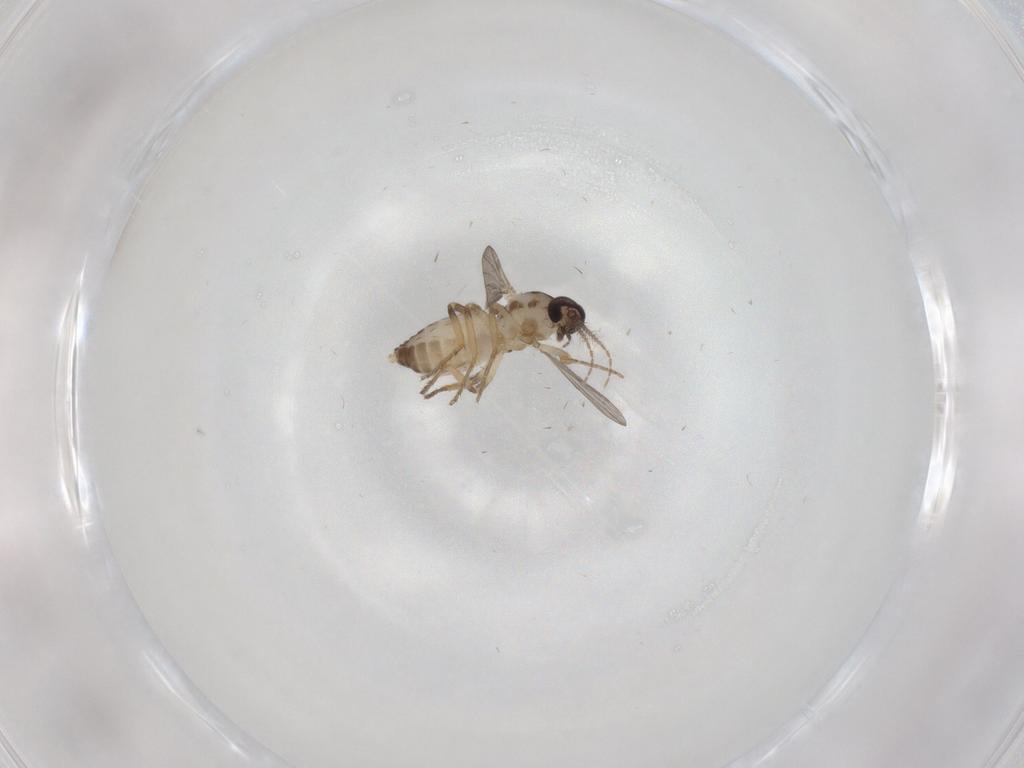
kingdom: Animalia
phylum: Arthropoda
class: Insecta
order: Diptera
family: Ceratopogonidae
